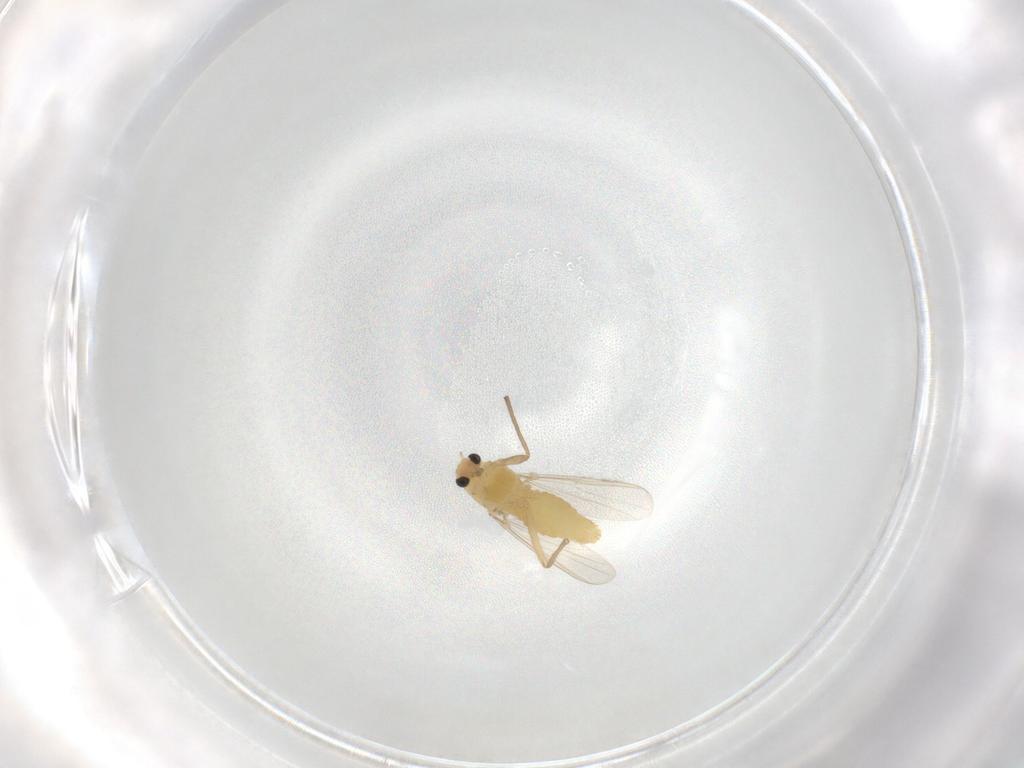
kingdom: Animalia
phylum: Arthropoda
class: Insecta
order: Diptera
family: Chironomidae
